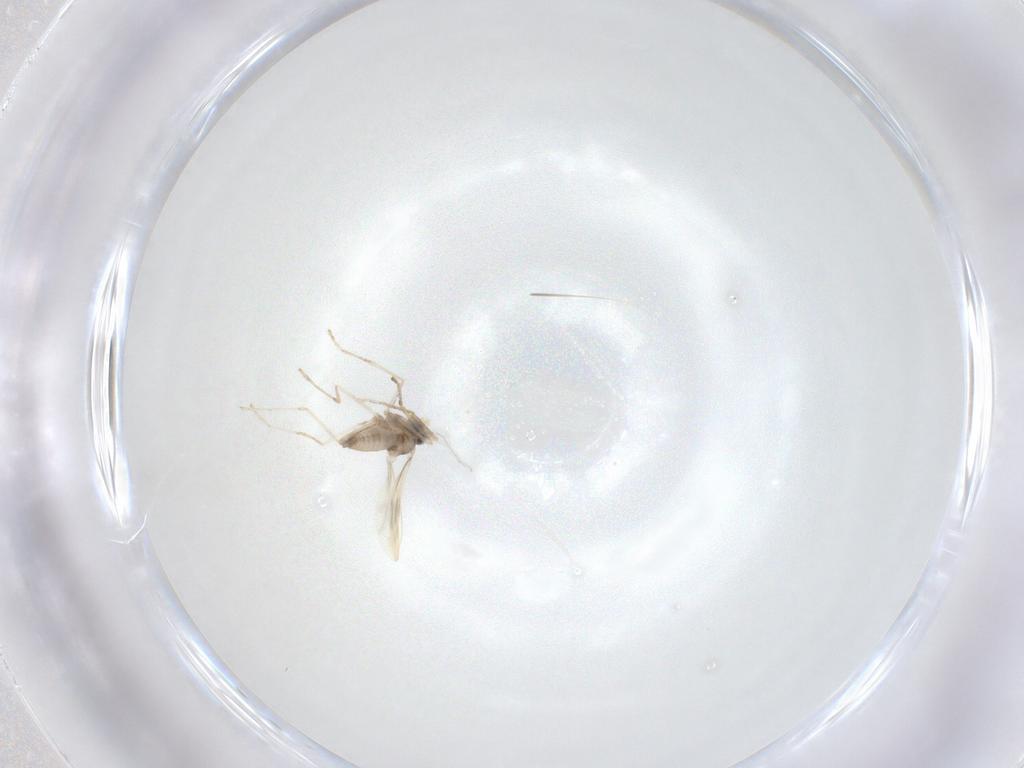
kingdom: Animalia
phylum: Arthropoda
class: Insecta
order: Diptera
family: Cecidomyiidae
